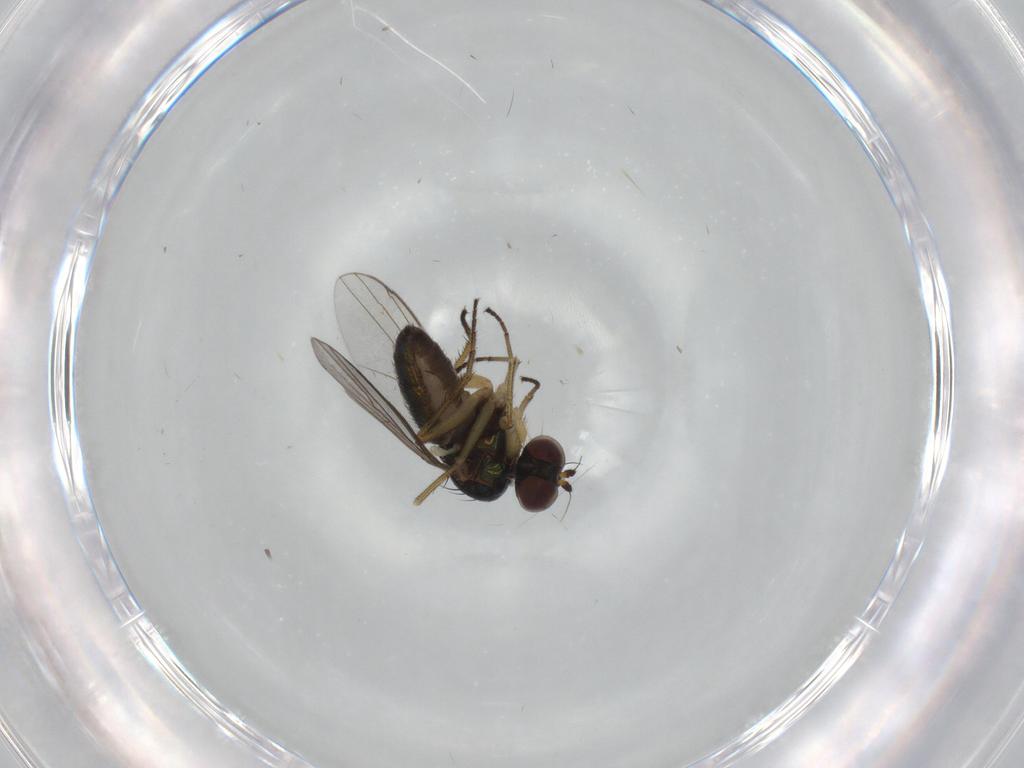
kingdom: Animalia
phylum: Arthropoda
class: Insecta
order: Diptera
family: Dolichopodidae
